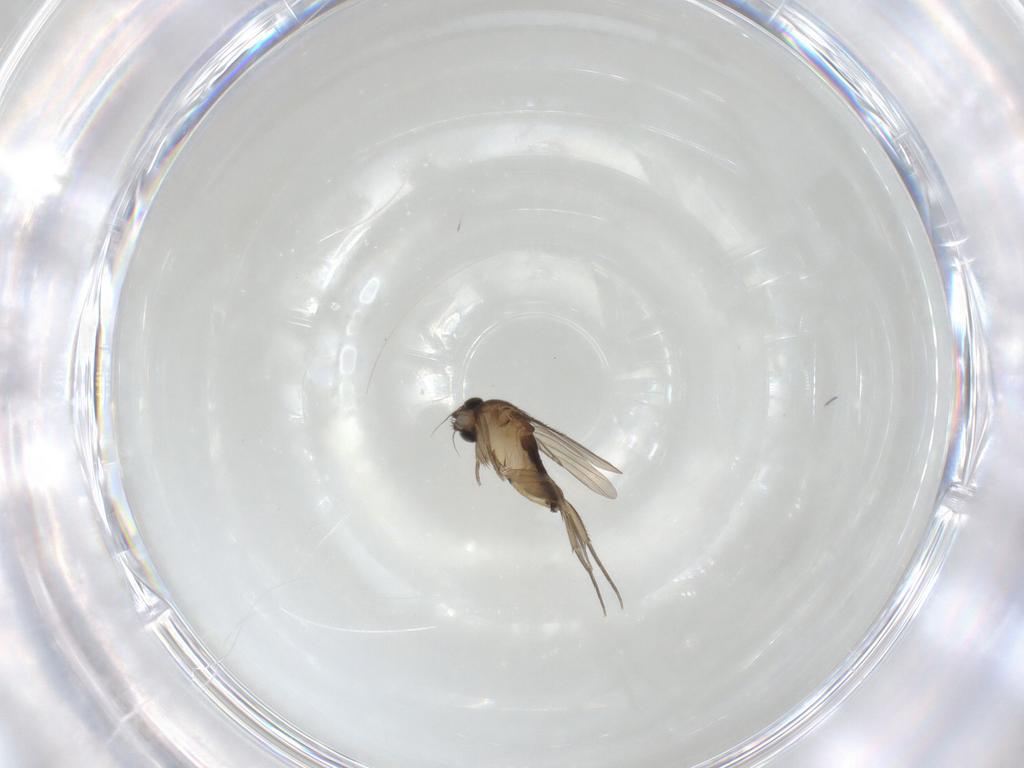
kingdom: Animalia
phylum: Arthropoda
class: Insecta
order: Diptera
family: Phoridae
